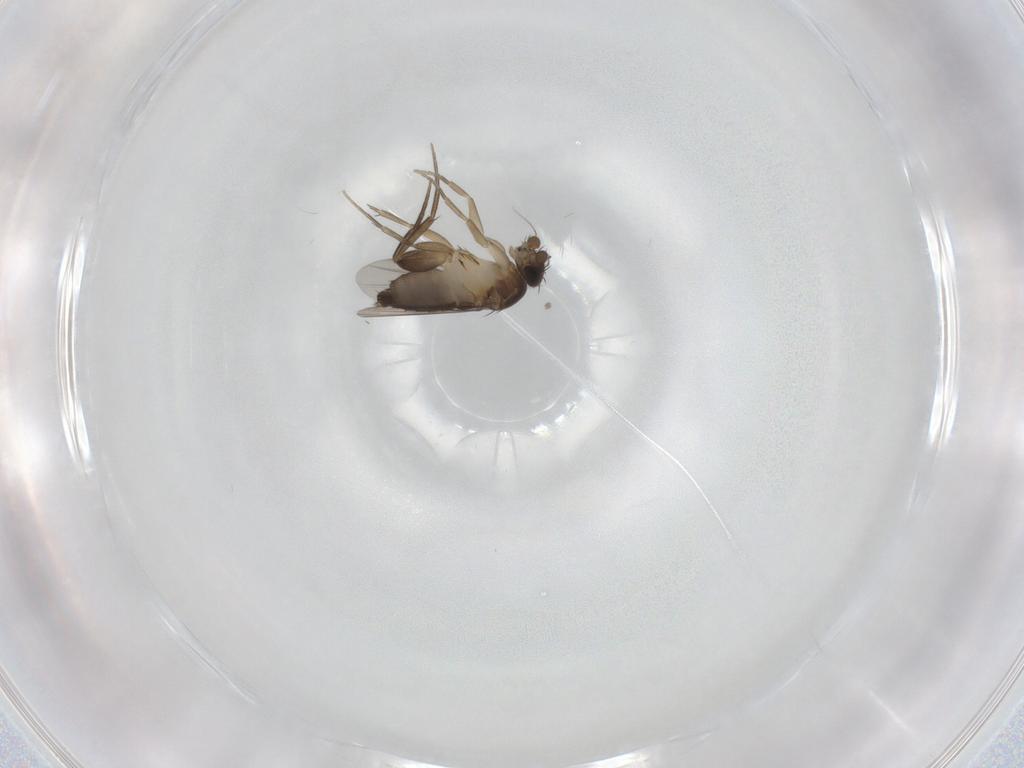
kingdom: Animalia
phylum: Arthropoda
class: Insecta
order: Diptera
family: Phoridae
